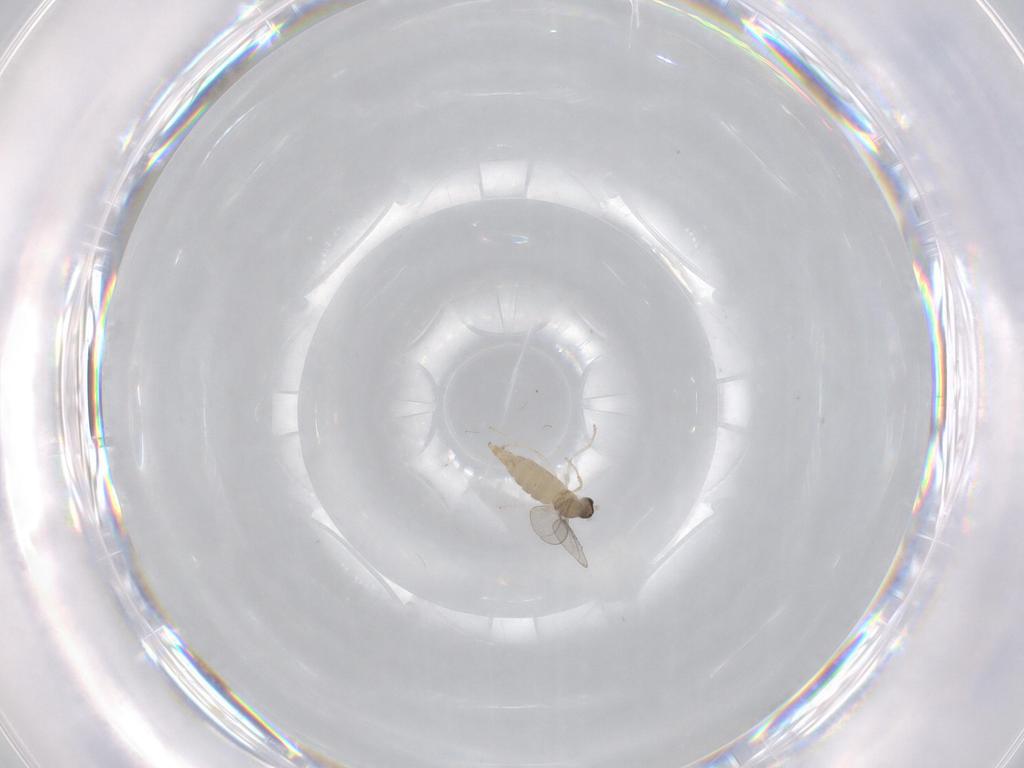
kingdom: Animalia
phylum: Arthropoda
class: Insecta
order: Diptera
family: Cecidomyiidae
